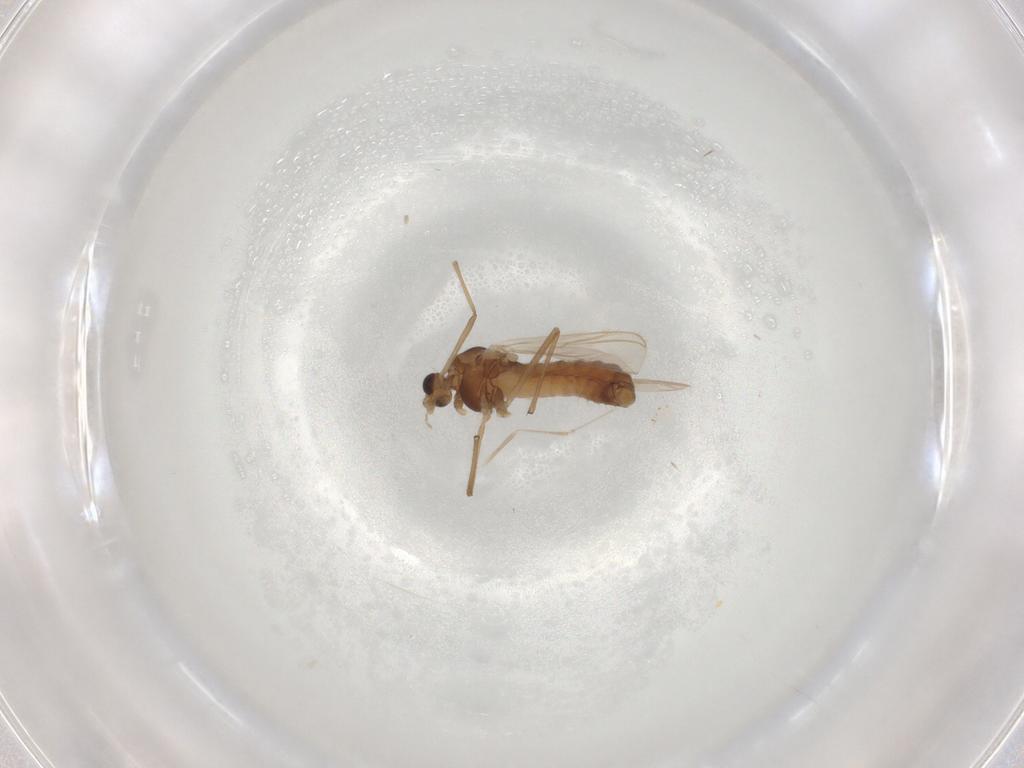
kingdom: Animalia
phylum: Arthropoda
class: Insecta
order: Diptera
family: Chironomidae
